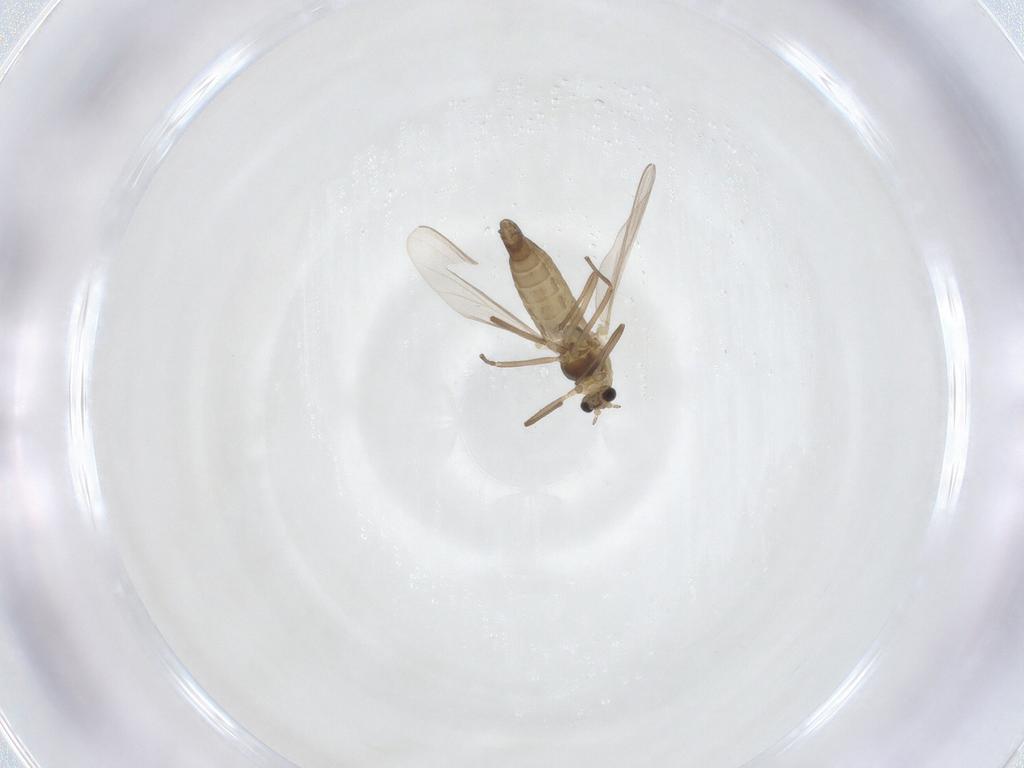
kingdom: Animalia
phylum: Arthropoda
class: Insecta
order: Diptera
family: Chironomidae
